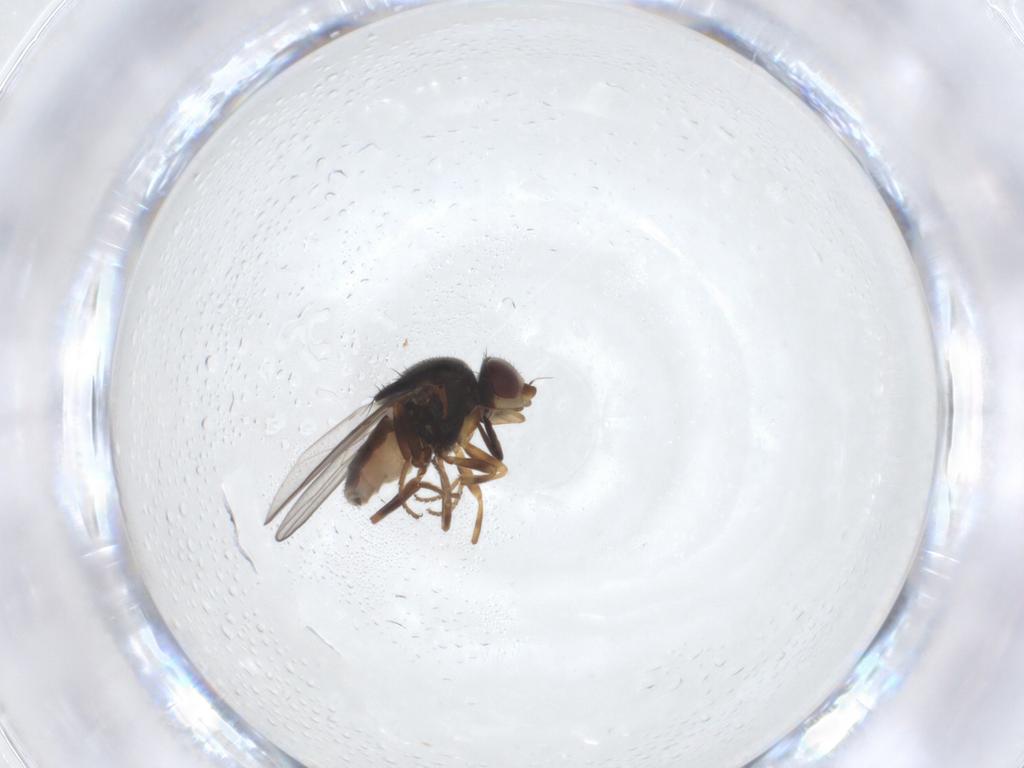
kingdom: Animalia
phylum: Arthropoda
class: Insecta
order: Diptera
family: Chloropidae
